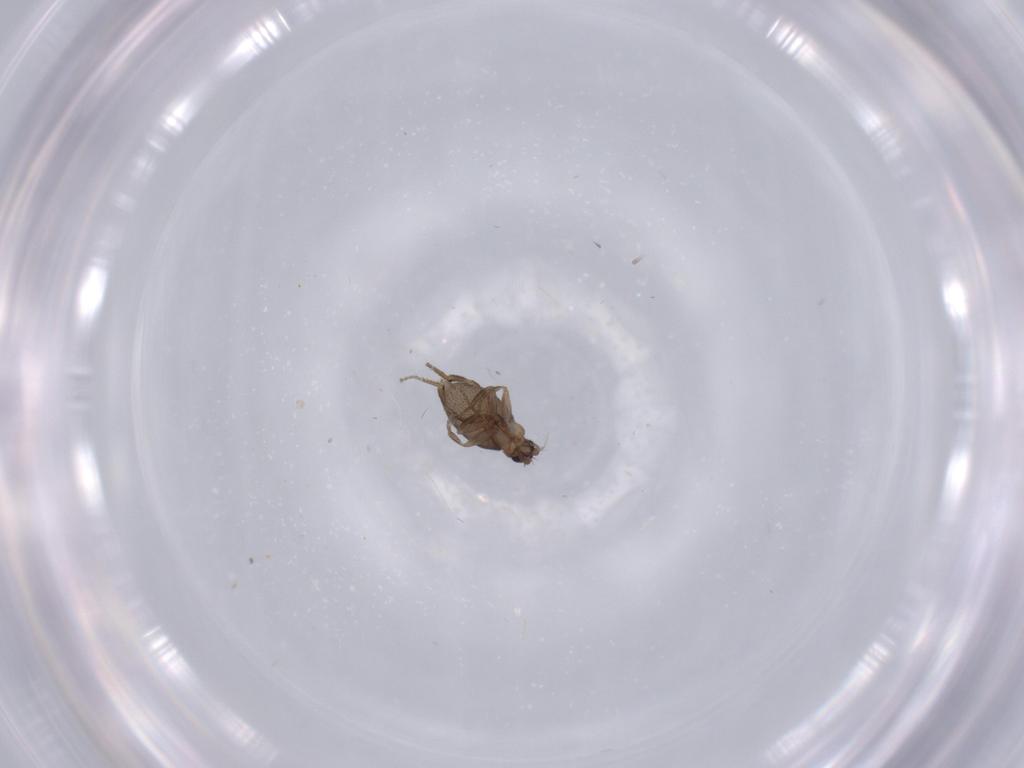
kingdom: Animalia
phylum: Arthropoda
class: Insecta
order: Diptera
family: Phoridae
